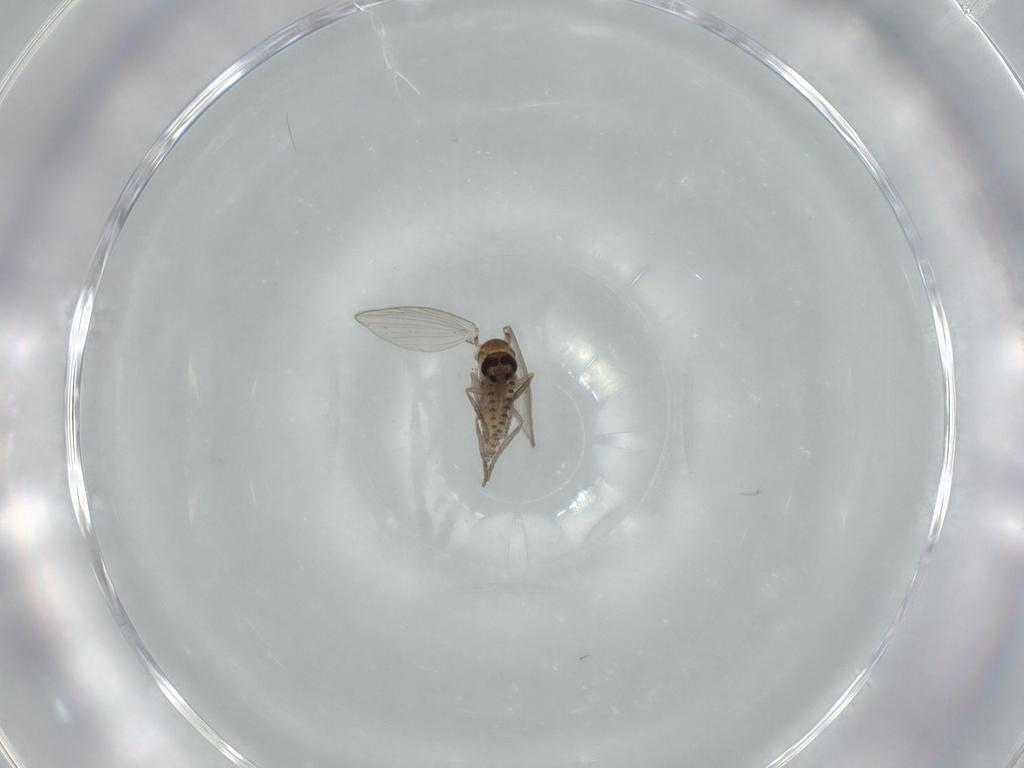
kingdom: Animalia
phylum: Arthropoda
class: Insecta
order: Diptera
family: Psychodidae
